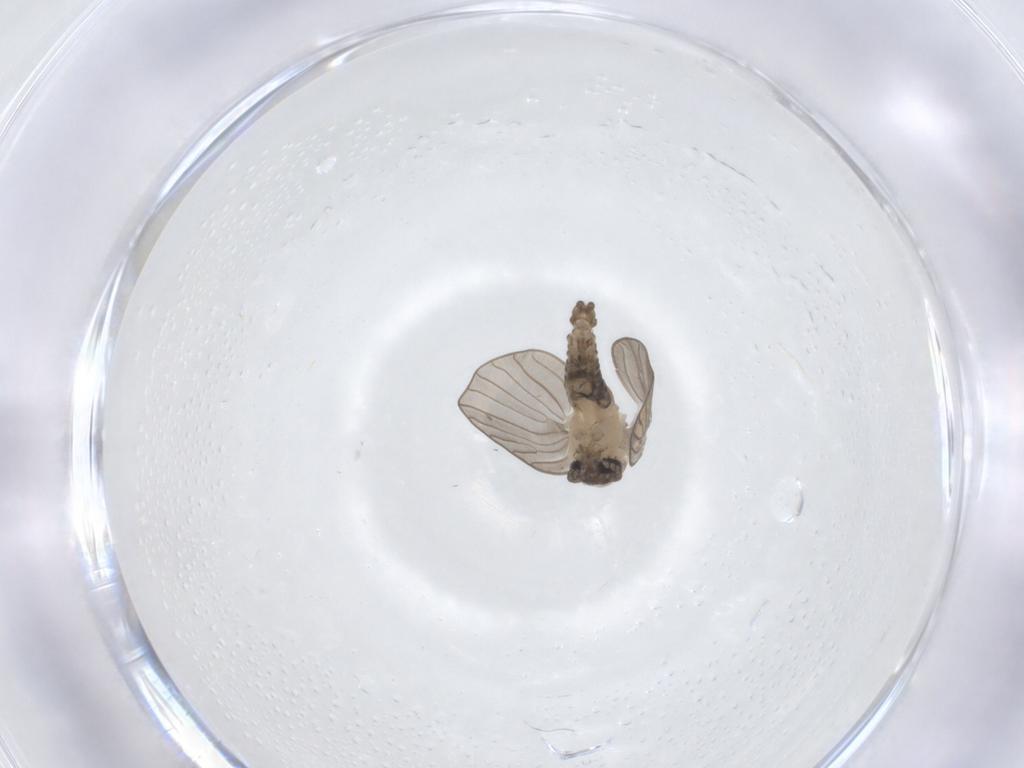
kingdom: Animalia
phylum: Arthropoda
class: Insecta
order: Diptera
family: Psychodidae
